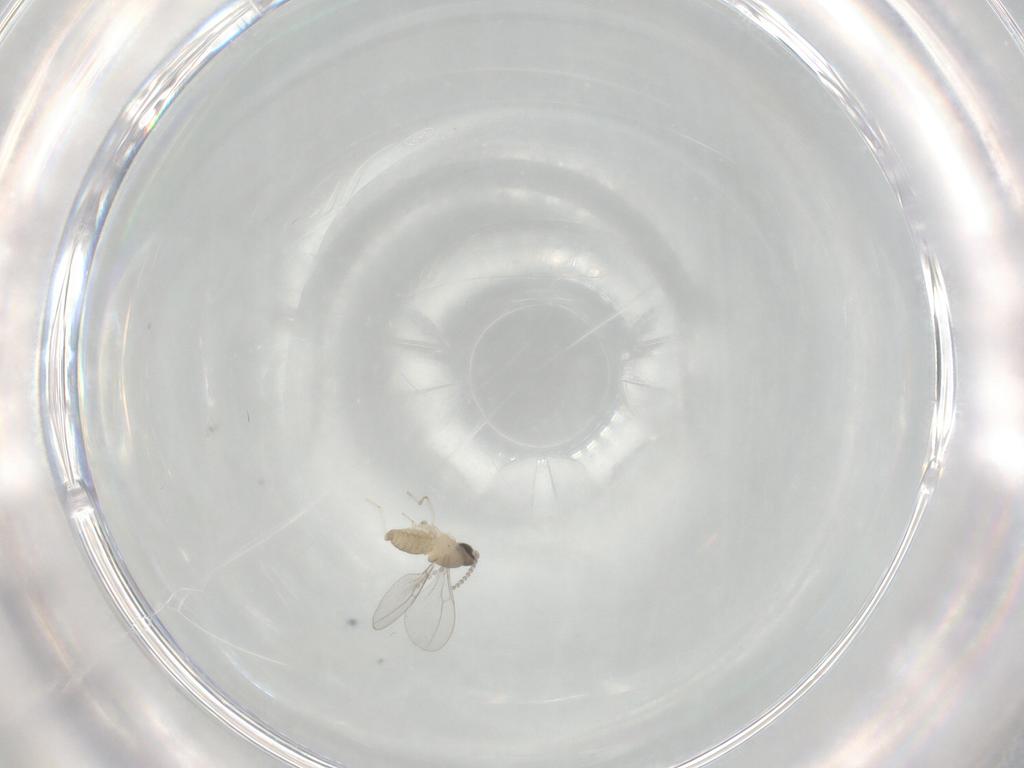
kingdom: Animalia
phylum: Arthropoda
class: Insecta
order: Diptera
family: Cecidomyiidae
